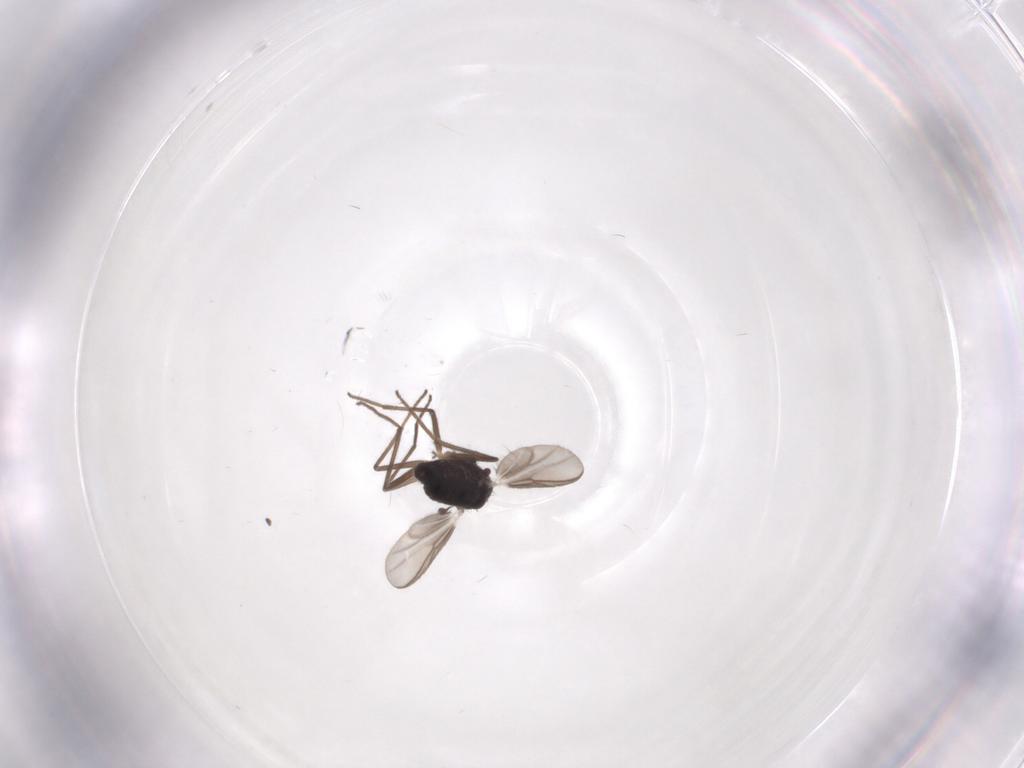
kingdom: Animalia
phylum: Arthropoda
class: Insecta
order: Diptera
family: Chironomidae
